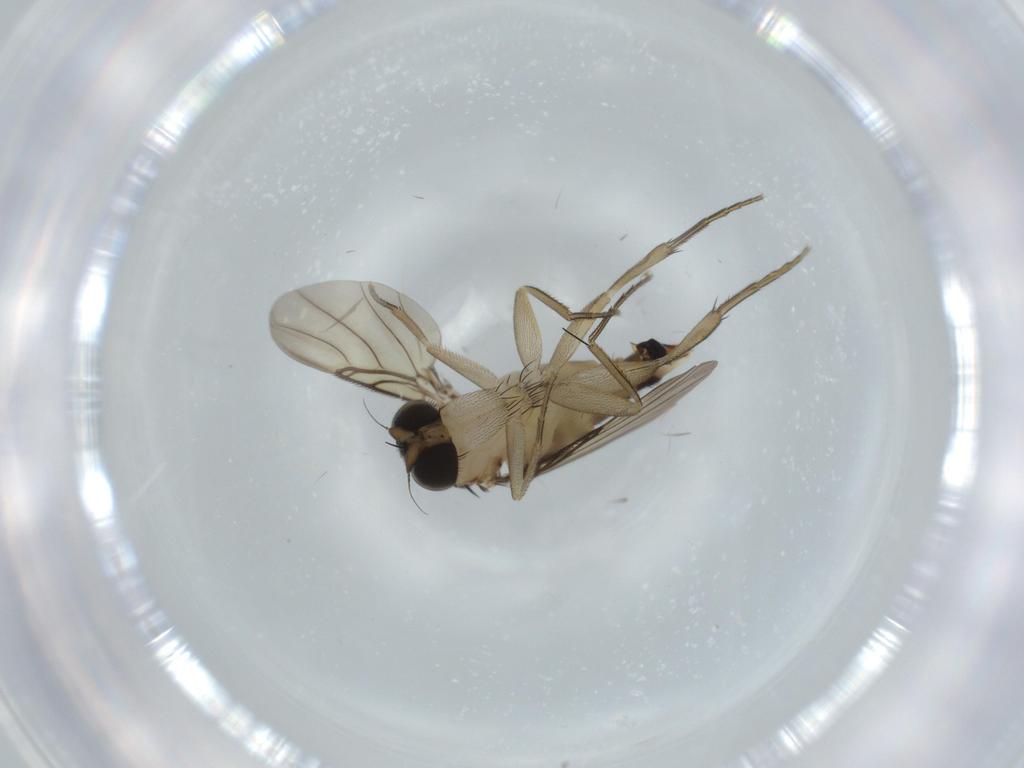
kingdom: Animalia
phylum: Arthropoda
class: Insecta
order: Diptera
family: Phoridae
